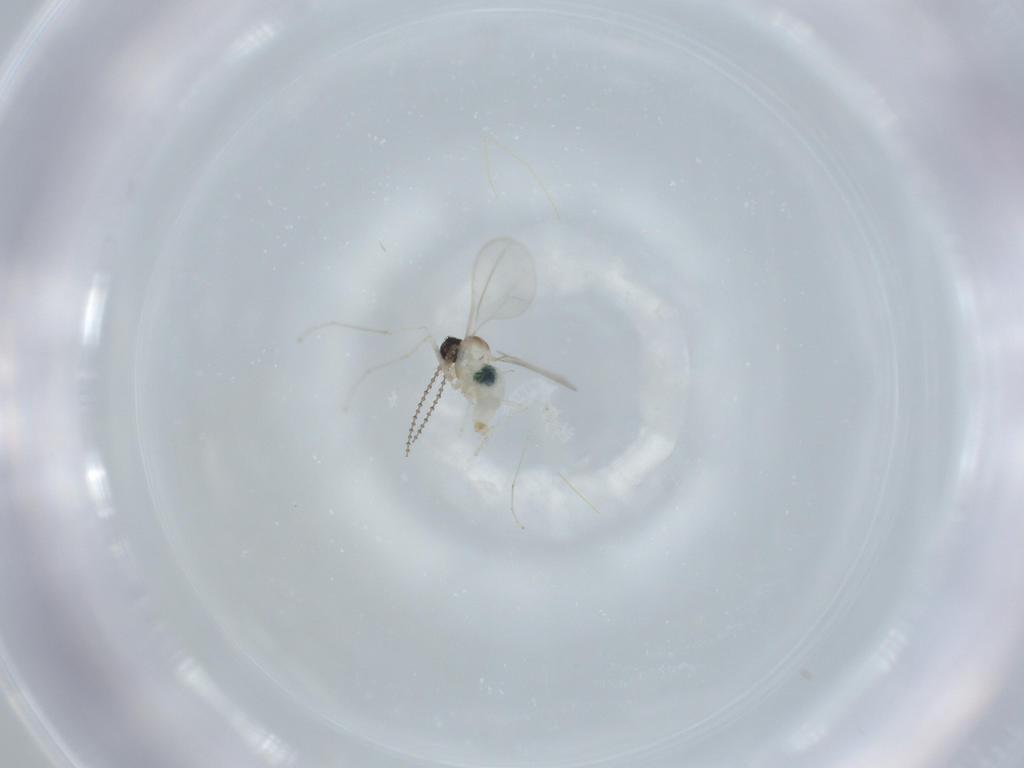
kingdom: Animalia
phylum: Arthropoda
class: Insecta
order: Diptera
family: Cecidomyiidae
